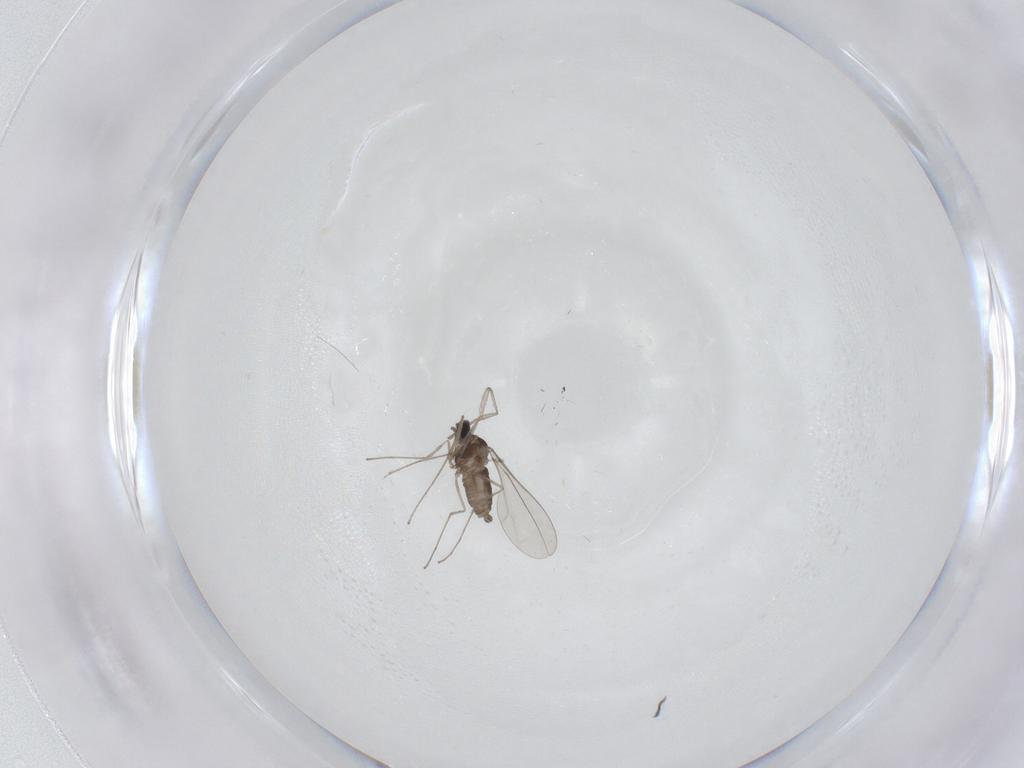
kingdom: Animalia
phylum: Arthropoda
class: Insecta
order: Diptera
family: Cecidomyiidae
